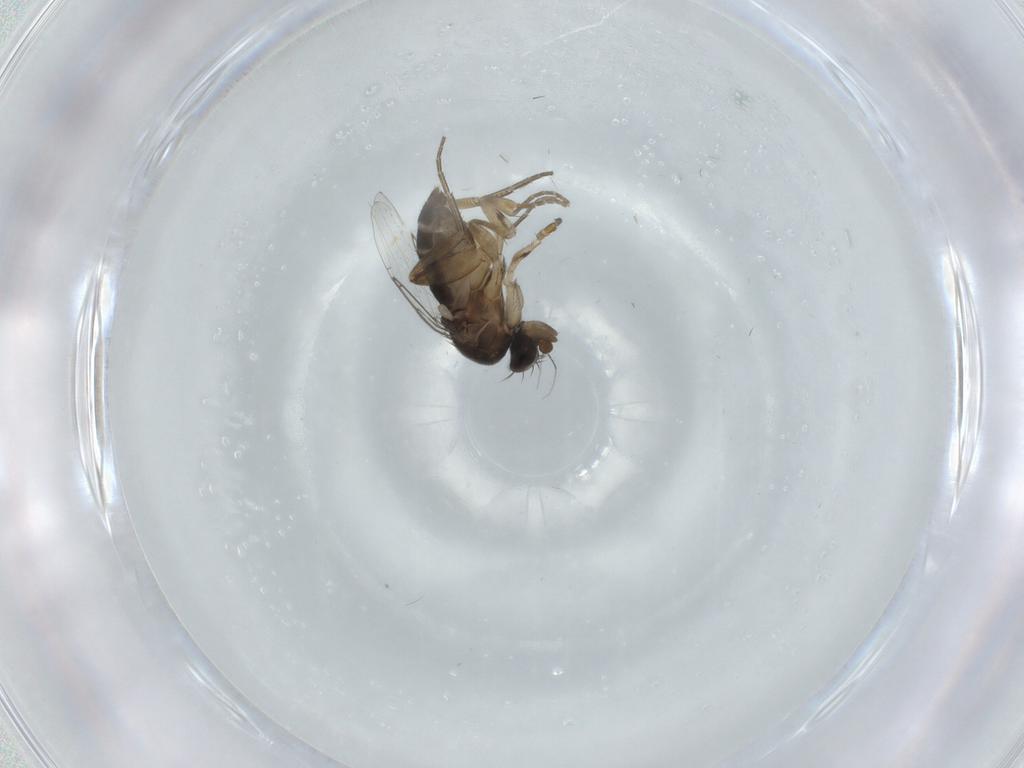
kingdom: Animalia
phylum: Arthropoda
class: Insecta
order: Diptera
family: Phoridae
